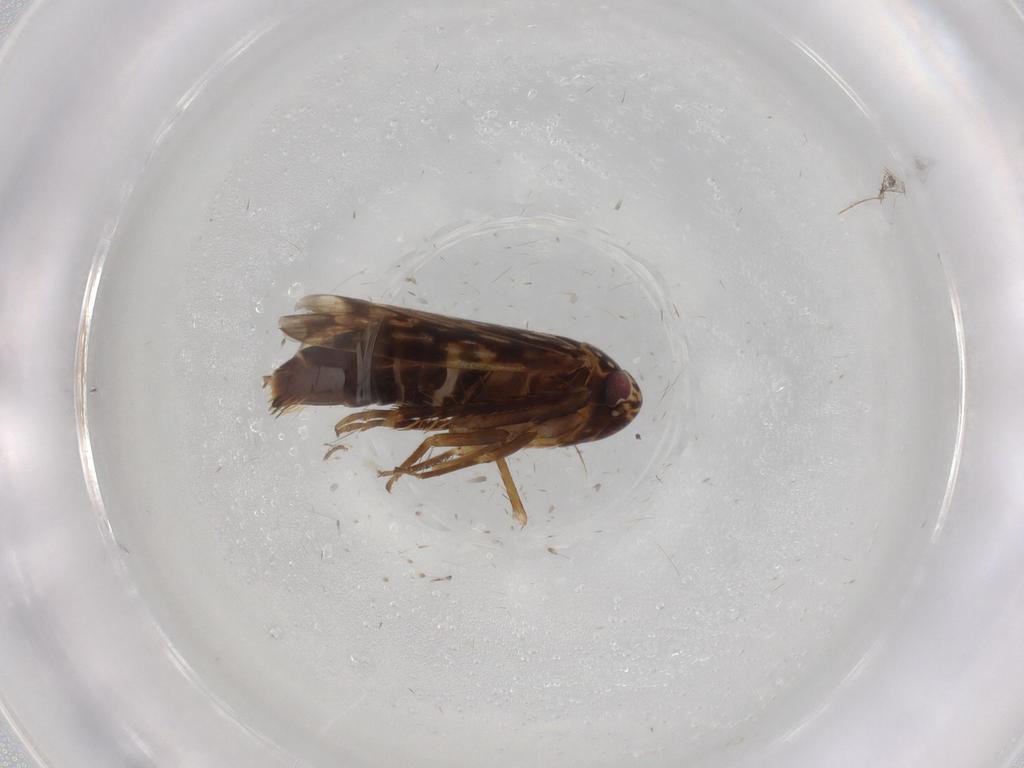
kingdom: Animalia
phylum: Arthropoda
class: Insecta
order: Hemiptera
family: Cicadellidae
